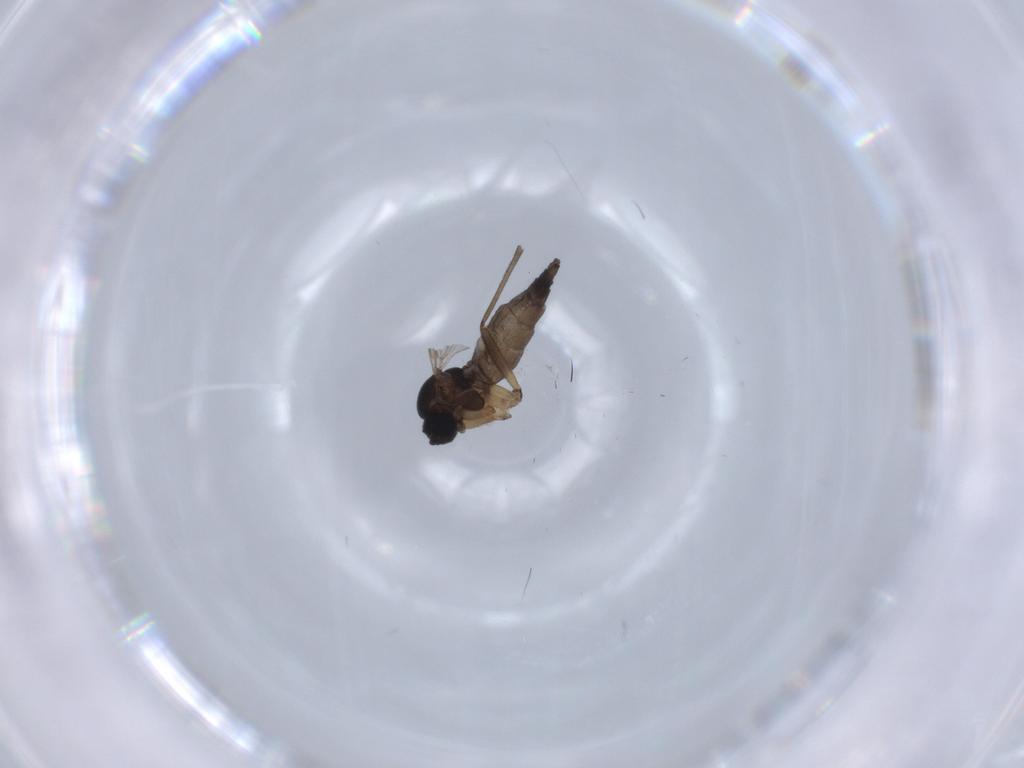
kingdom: Animalia
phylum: Arthropoda
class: Insecta
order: Diptera
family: Sciaridae
